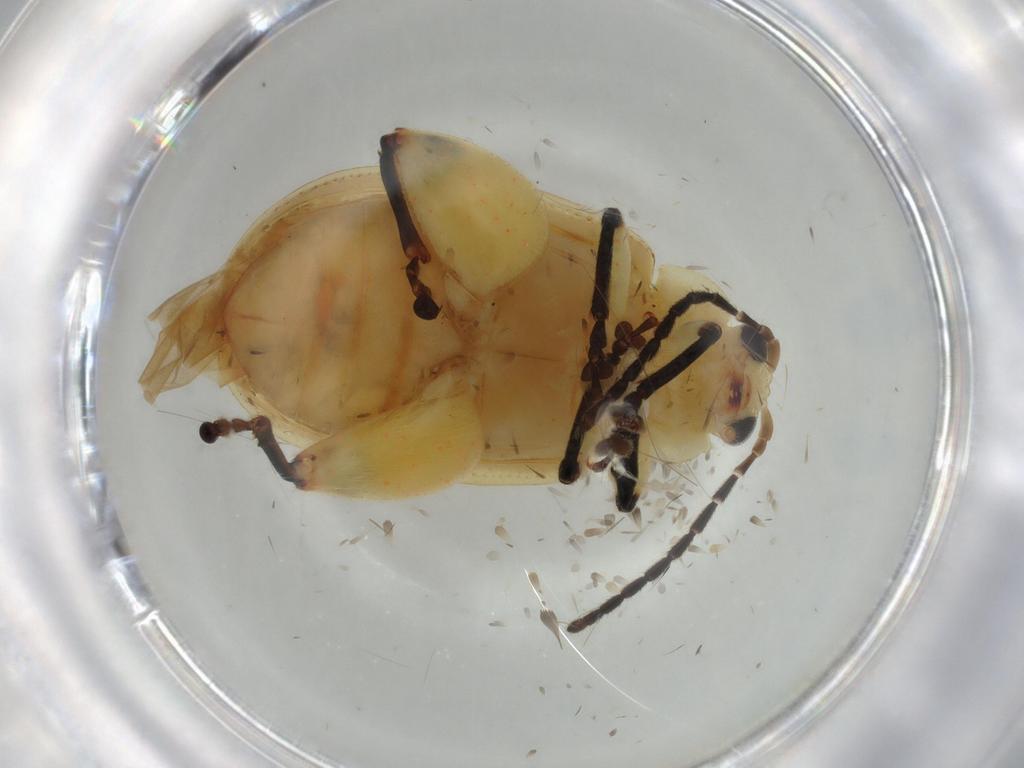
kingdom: Animalia
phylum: Arthropoda
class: Insecta
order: Coleoptera
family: Chrysomelidae
